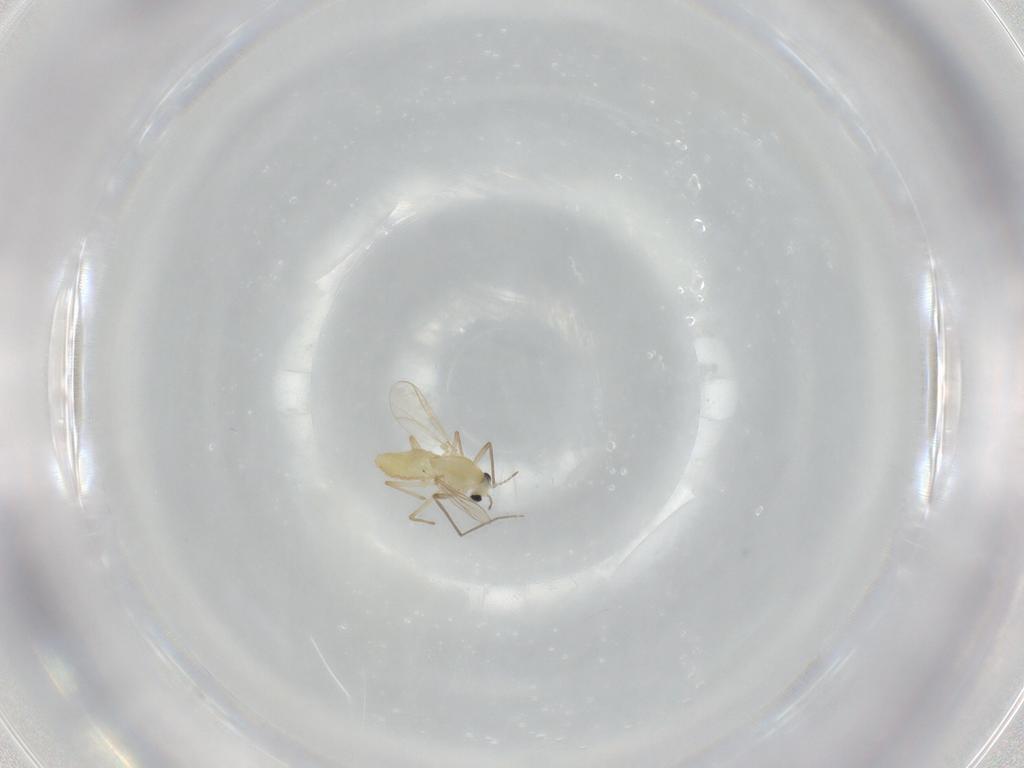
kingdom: Animalia
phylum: Arthropoda
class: Insecta
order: Diptera
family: Chironomidae
